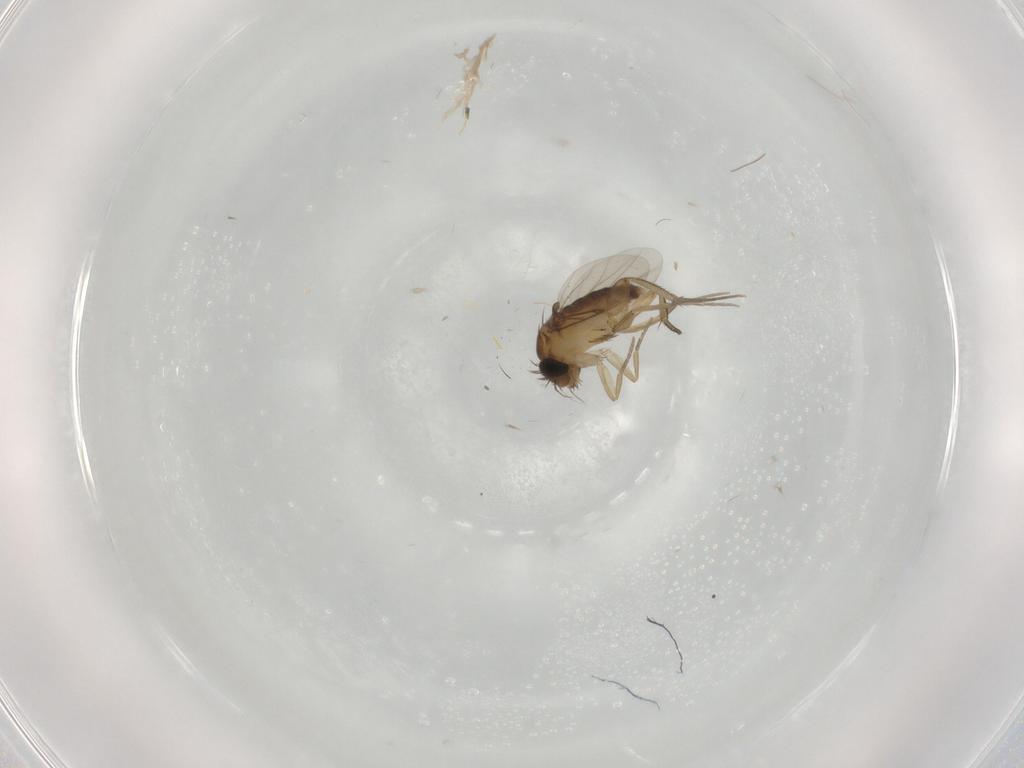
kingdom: Animalia
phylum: Arthropoda
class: Insecta
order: Diptera
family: Phoridae
